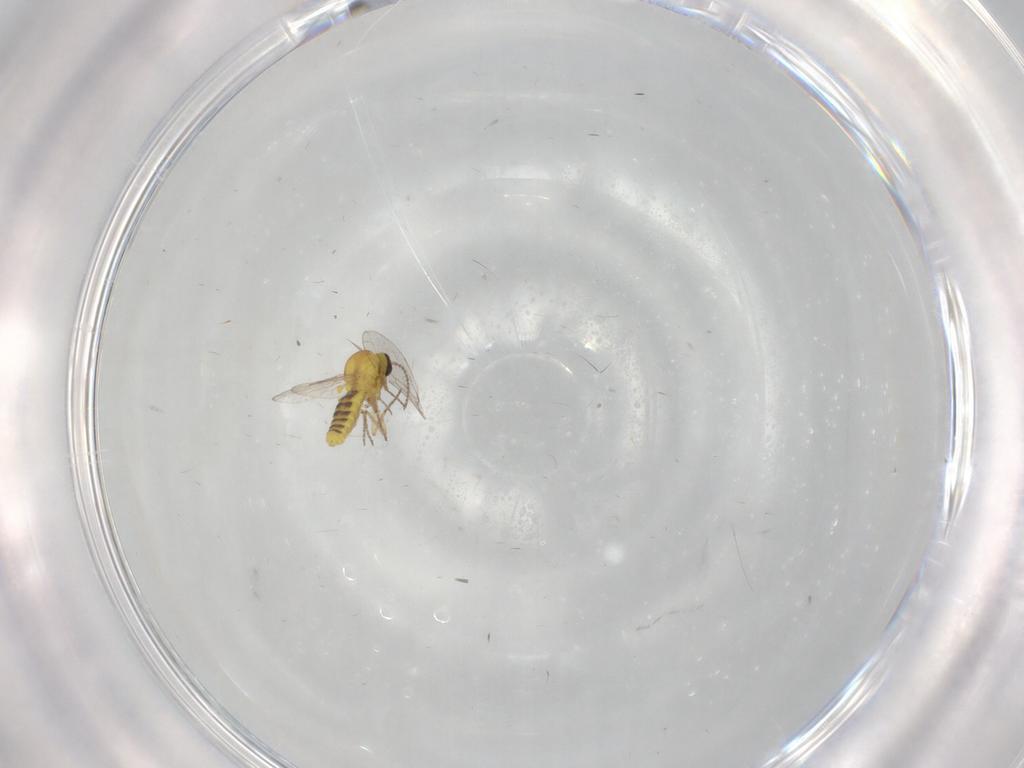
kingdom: Animalia
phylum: Arthropoda
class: Insecta
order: Diptera
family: Ceratopogonidae
